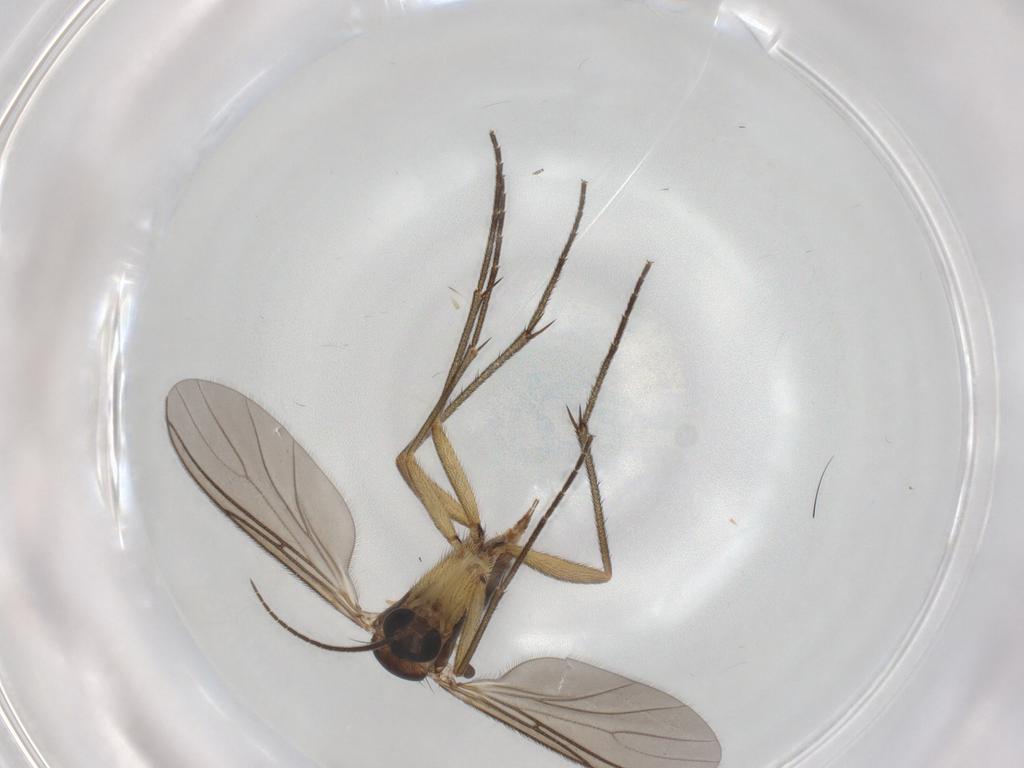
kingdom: Animalia
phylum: Arthropoda
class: Insecta
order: Diptera
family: Sciaridae
